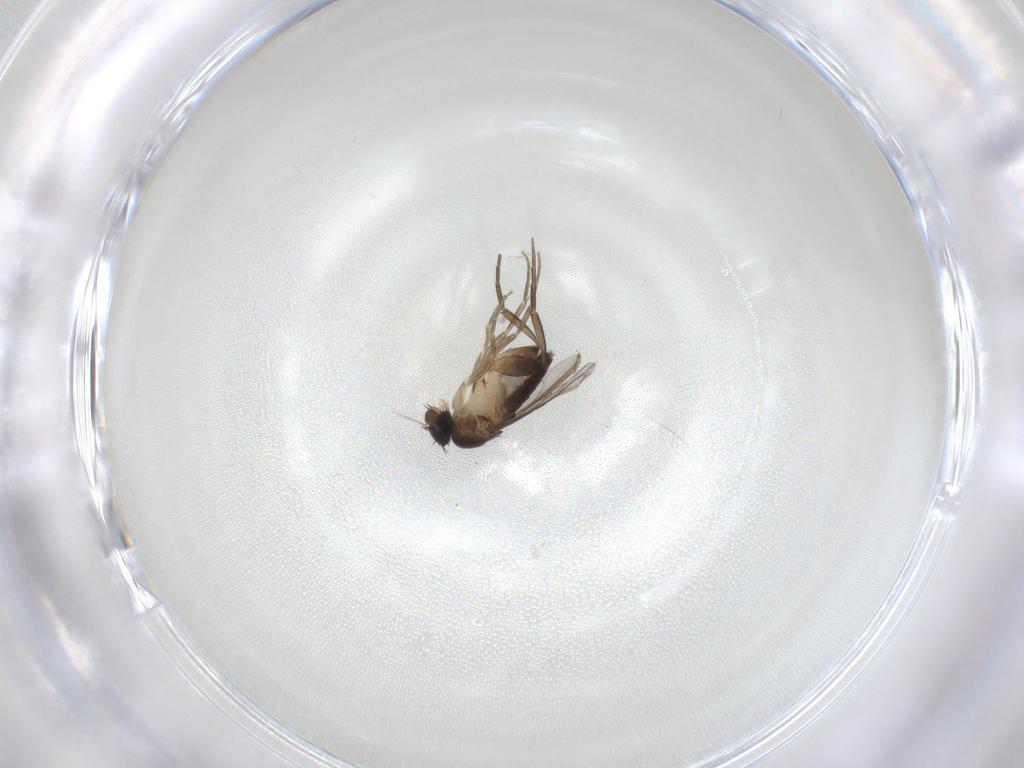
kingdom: Animalia
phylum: Arthropoda
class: Insecta
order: Diptera
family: Phoridae
